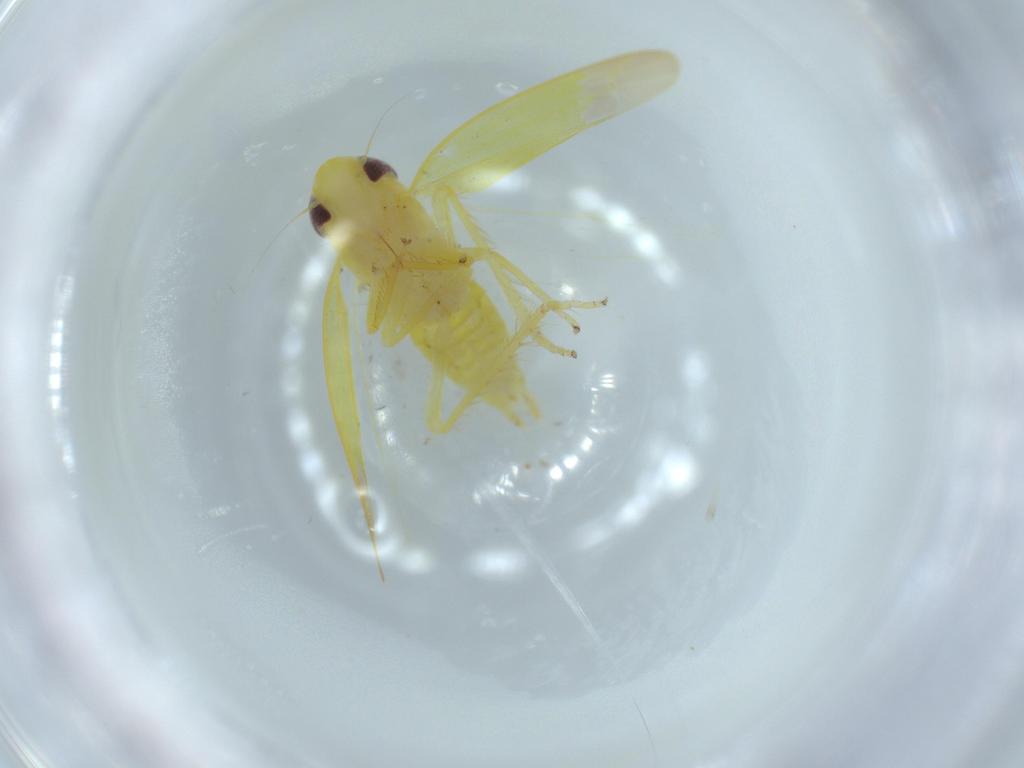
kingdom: Animalia
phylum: Arthropoda
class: Insecta
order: Hemiptera
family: Cicadellidae
